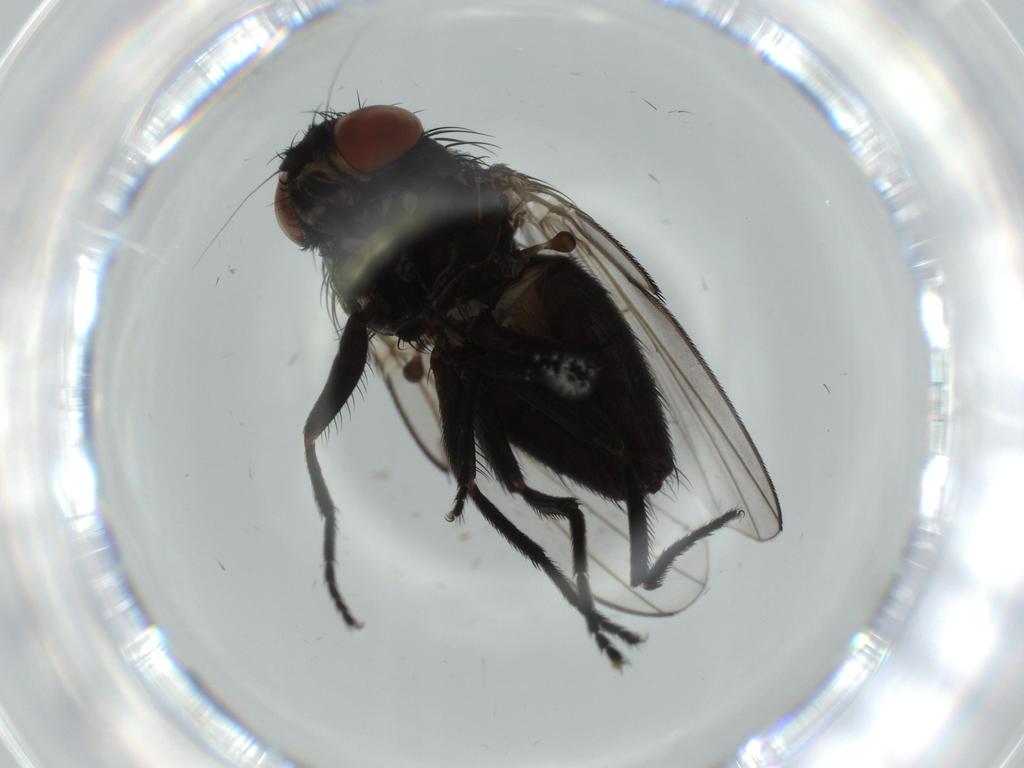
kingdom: Animalia
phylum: Arthropoda
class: Insecta
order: Diptera
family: Milichiidae
